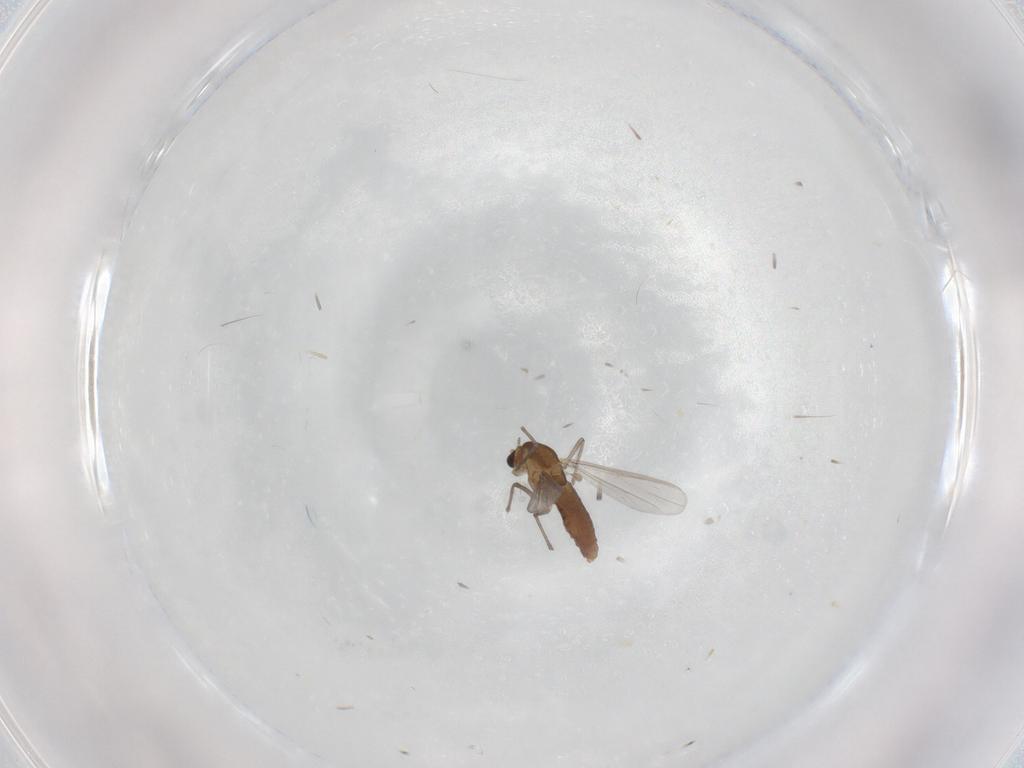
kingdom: Animalia
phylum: Arthropoda
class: Insecta
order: Diptera
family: Chironomidae
